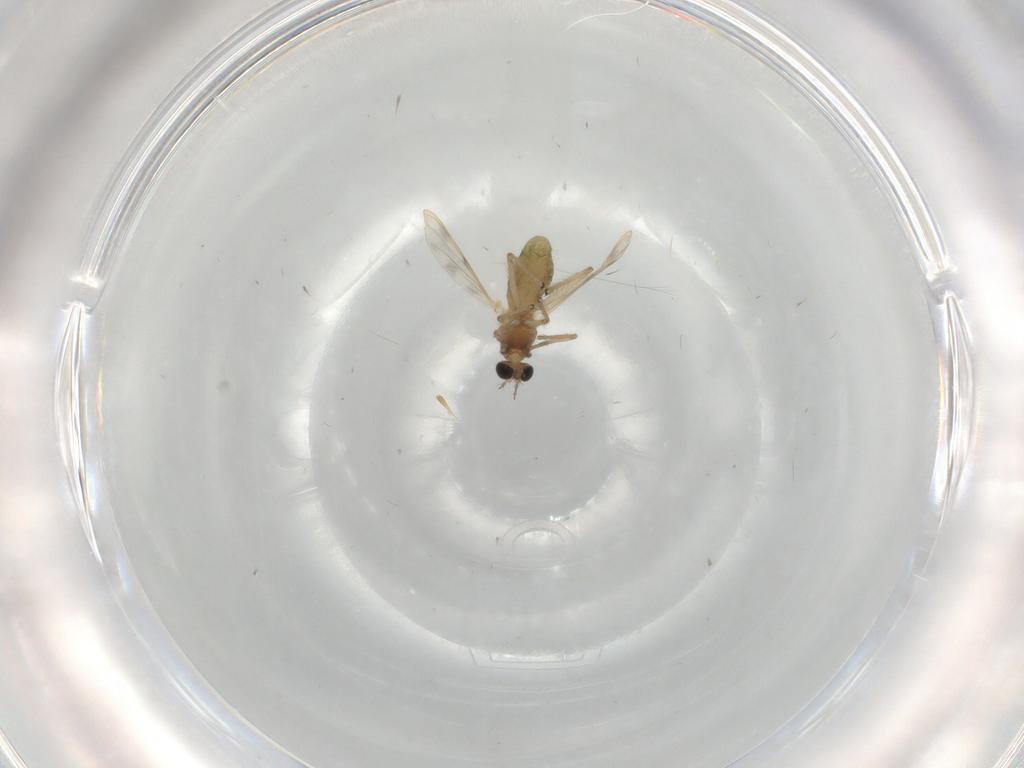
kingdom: Animalia
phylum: Arthropoda
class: Insecta
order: Diptera
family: Chironomidae
